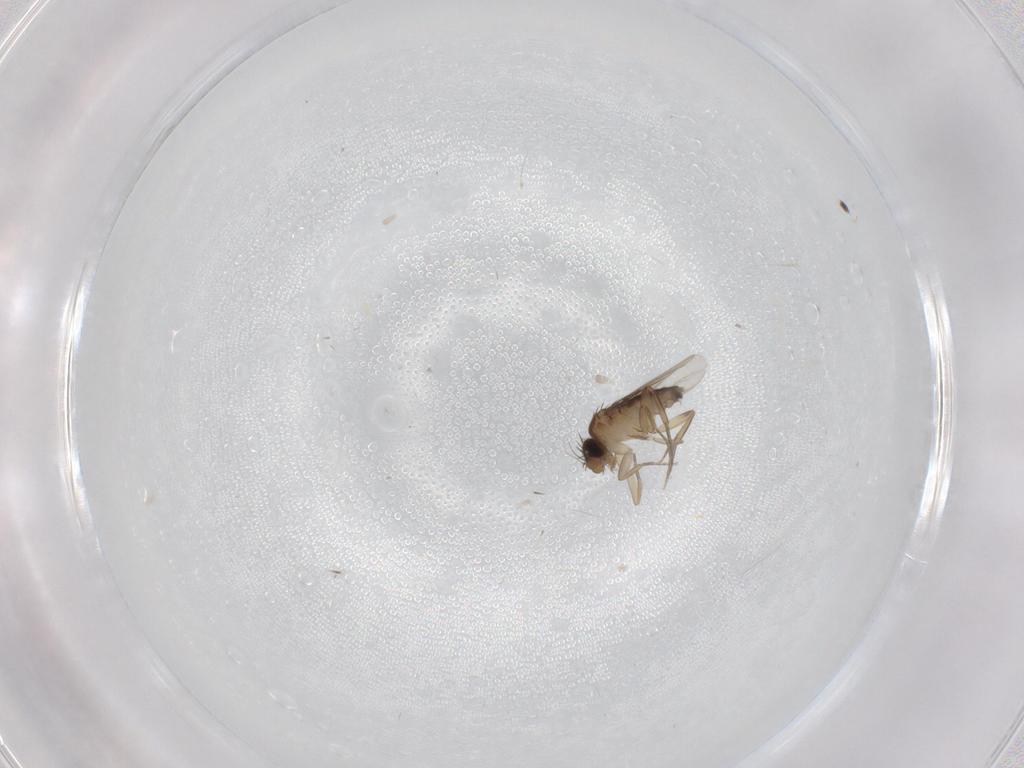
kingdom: Animalia
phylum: Arthropoda
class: Insecta
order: Diptera
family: Phoridae
